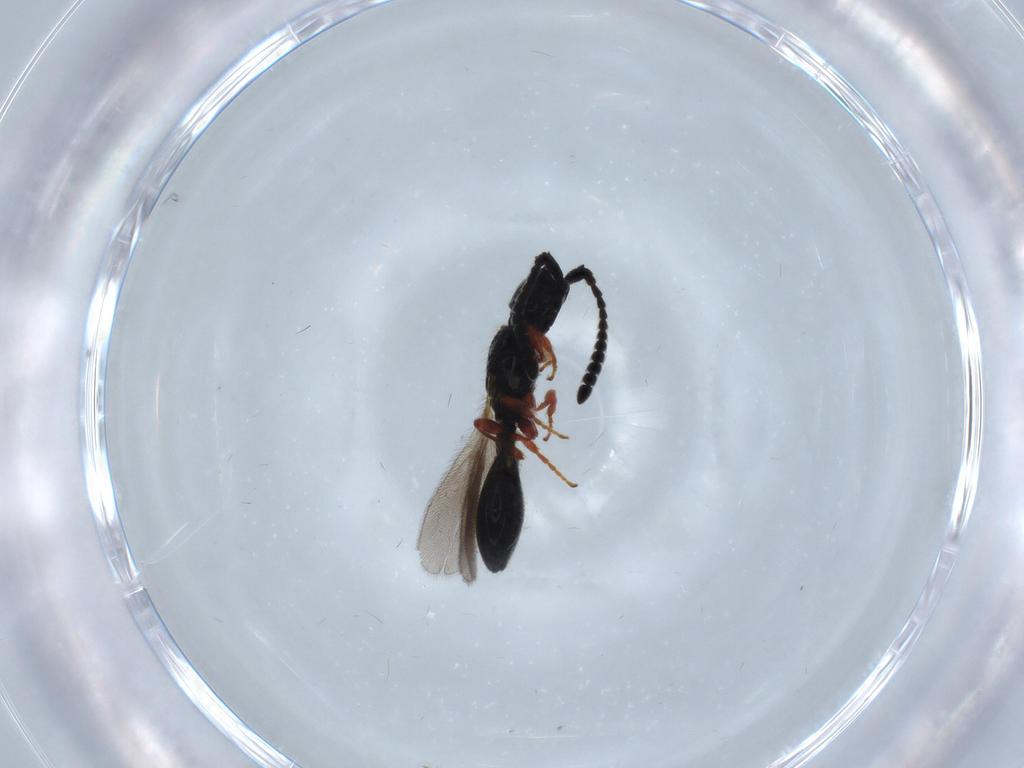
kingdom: Animalia
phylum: Arthropoda
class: Insecta
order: Hymenoptera
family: Diapriidae
